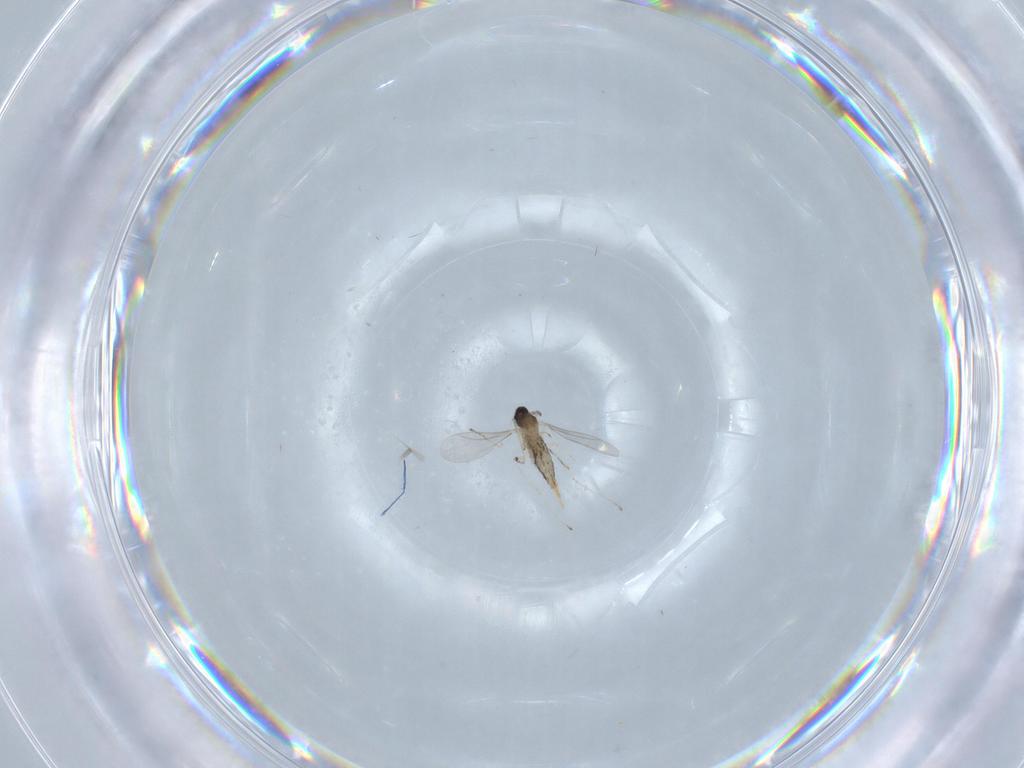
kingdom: Animalia
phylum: Arthropoda
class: Insecta
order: Diptera
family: Cecidomyiidae
